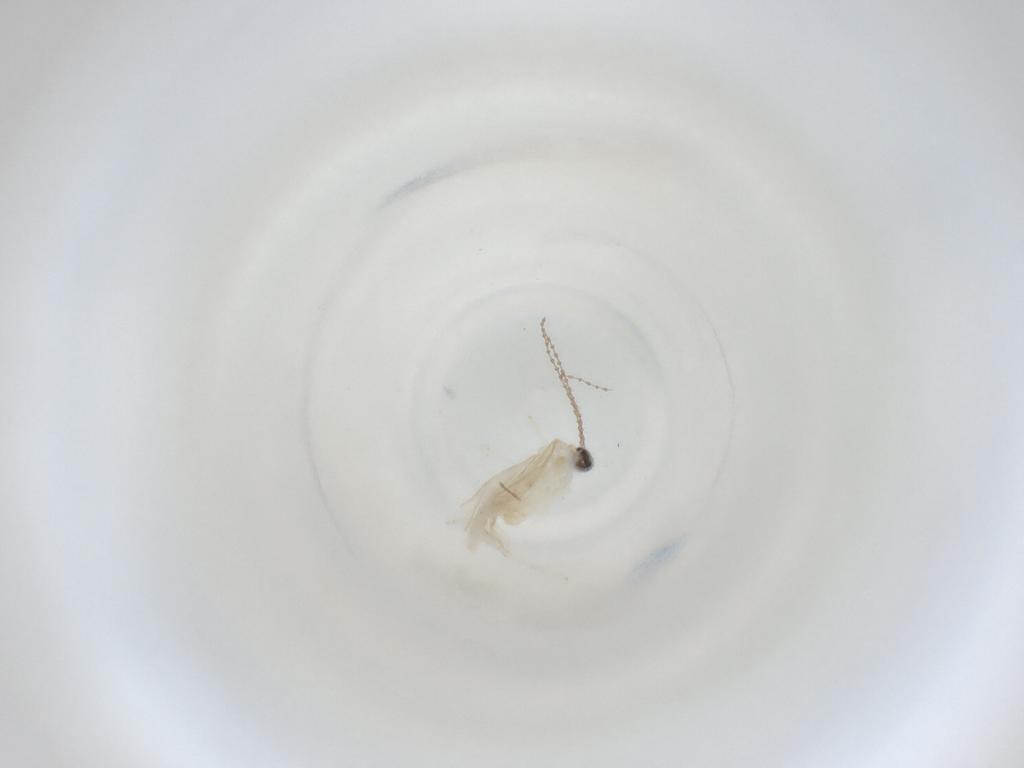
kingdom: Animalia
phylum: Arthropoda
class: Insecta
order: Diptera
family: Cecidomyiidae
